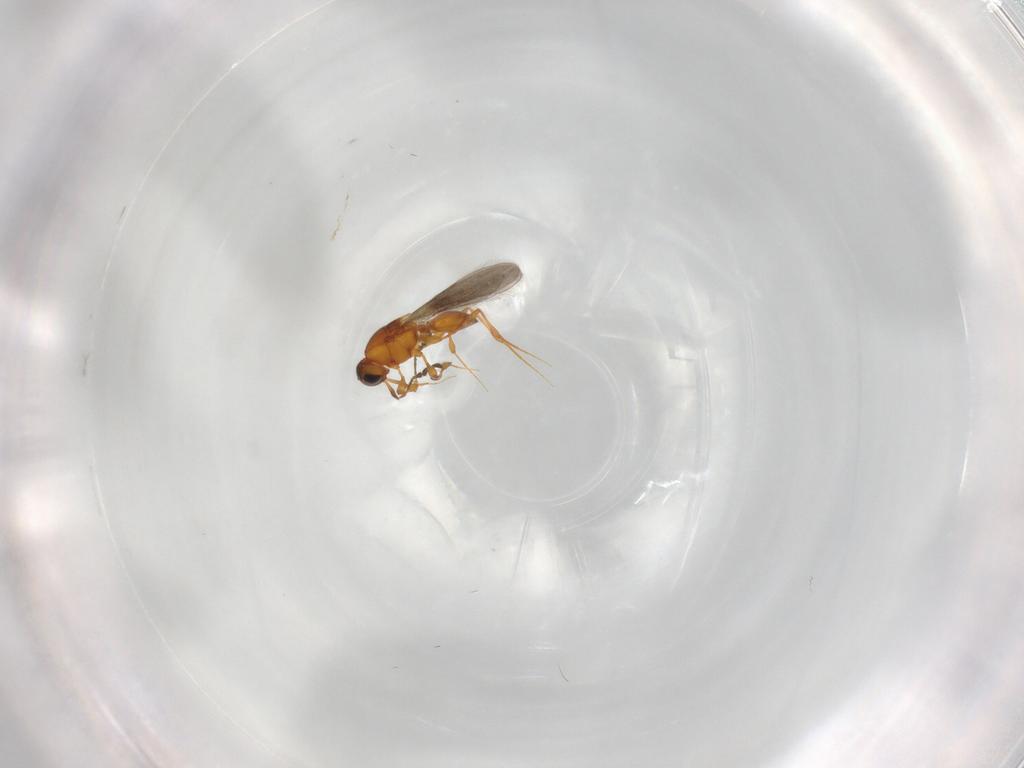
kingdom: Animalia
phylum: Arthropoda
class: Insecta
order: Hymenoptera
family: Platygastridae
